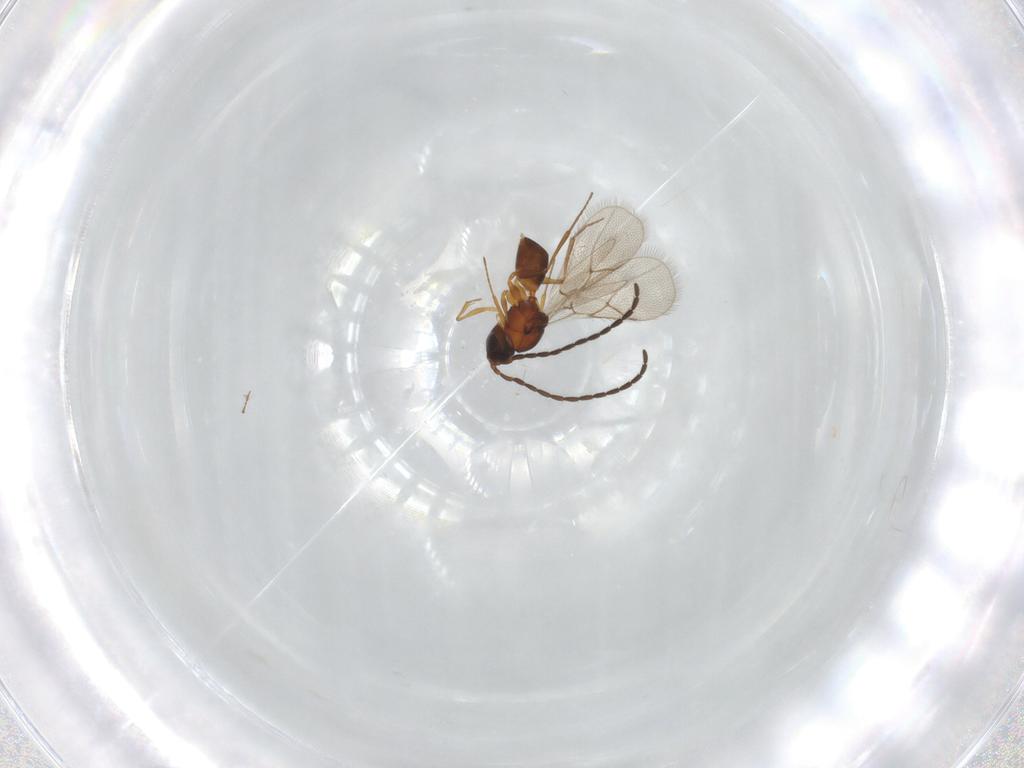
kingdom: Animalia
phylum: Arthropoda
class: Insecta
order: Hymenoptera
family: Figitidae
